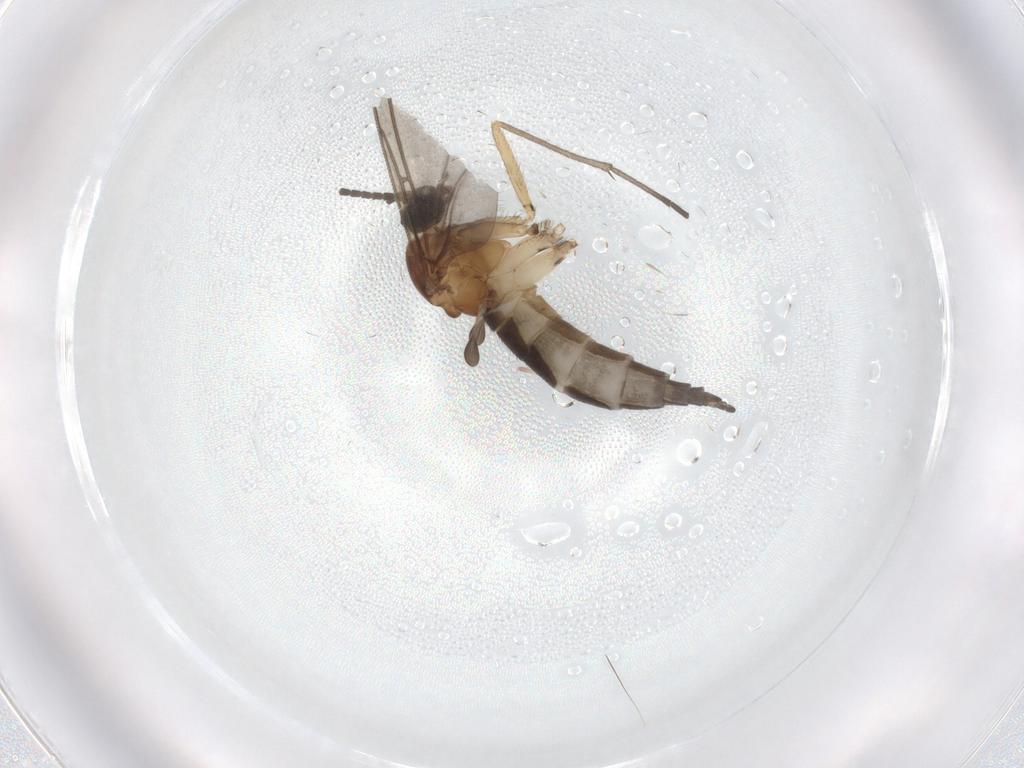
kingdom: Animalia
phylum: Arthropoda
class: Insecta
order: Diptera
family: Sciaridae
